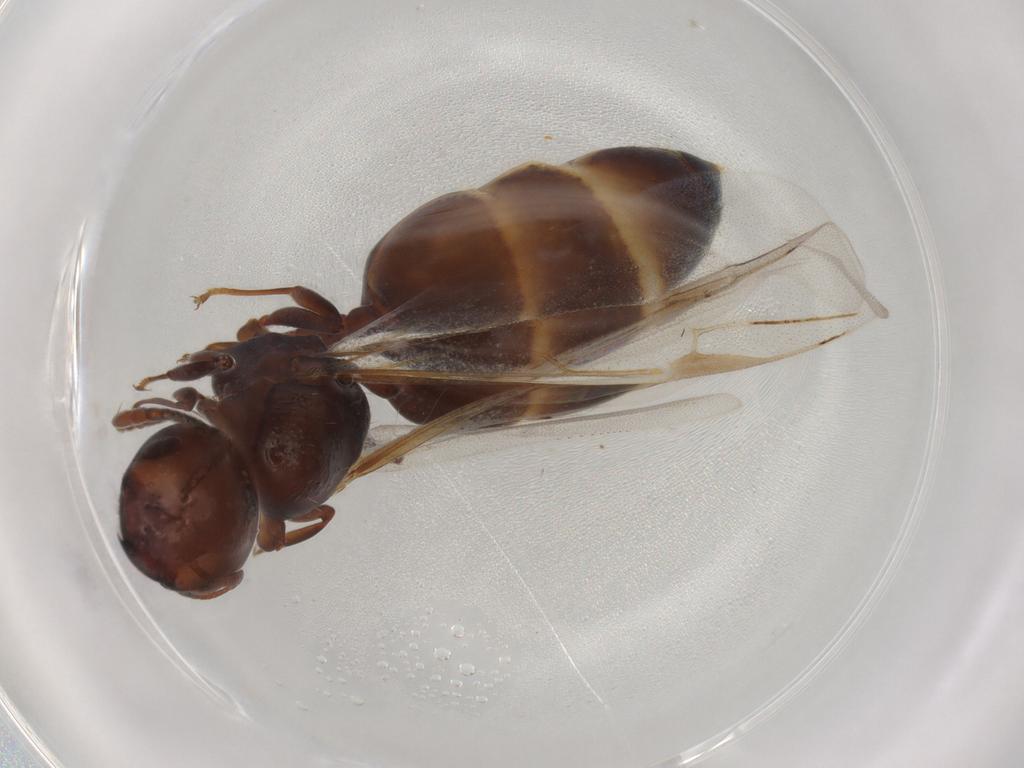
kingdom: Animalia
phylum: Arthropoda
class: Insecta
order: Hymenoptera
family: Formicidae
